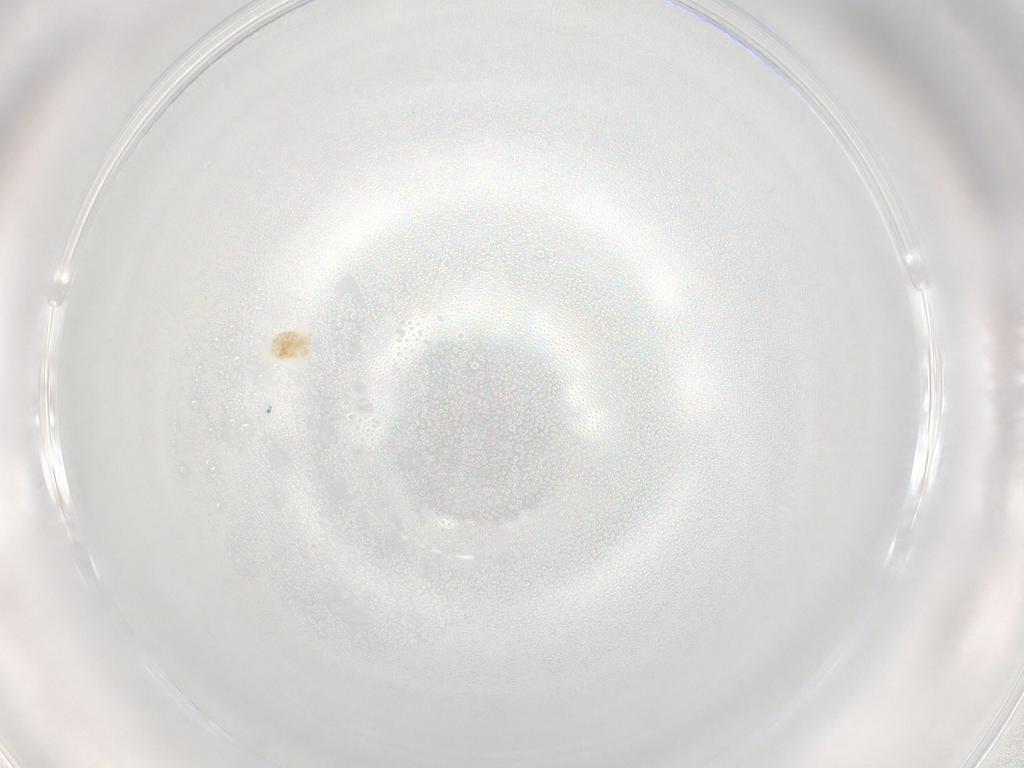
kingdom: Animalia
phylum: Arthropoda
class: Arachnida
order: Trombidiformes
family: Eupodidae
